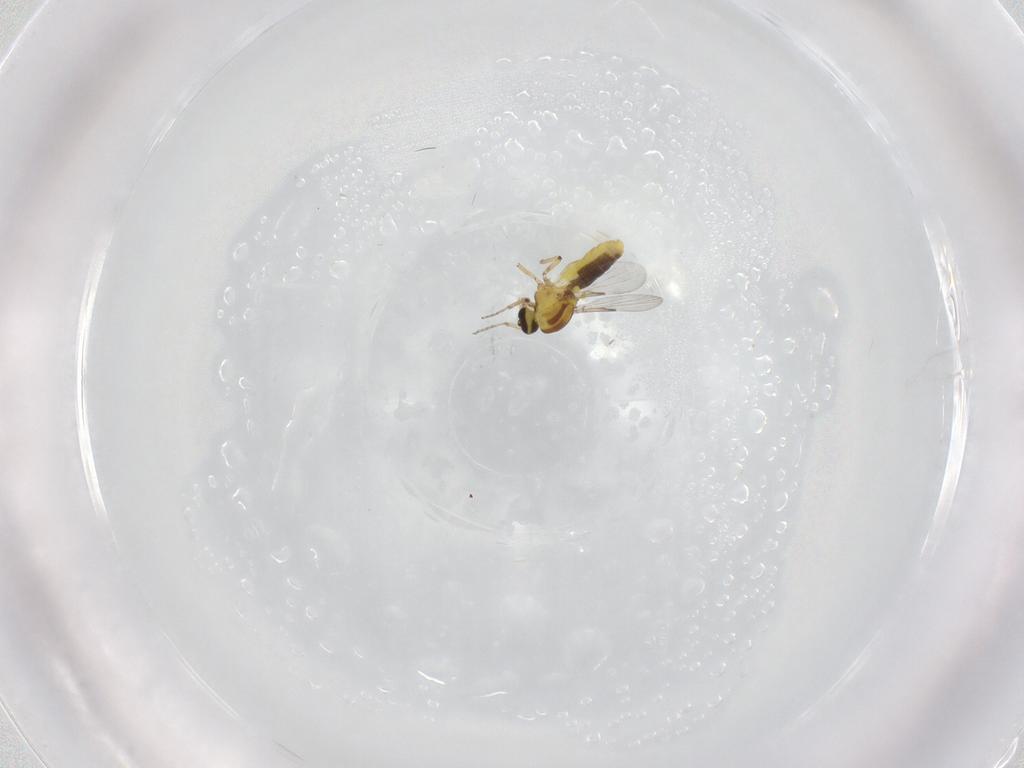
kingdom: Animalia
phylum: Arthropoda
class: Insecta
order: Diptera
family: Ceratopogonidae
